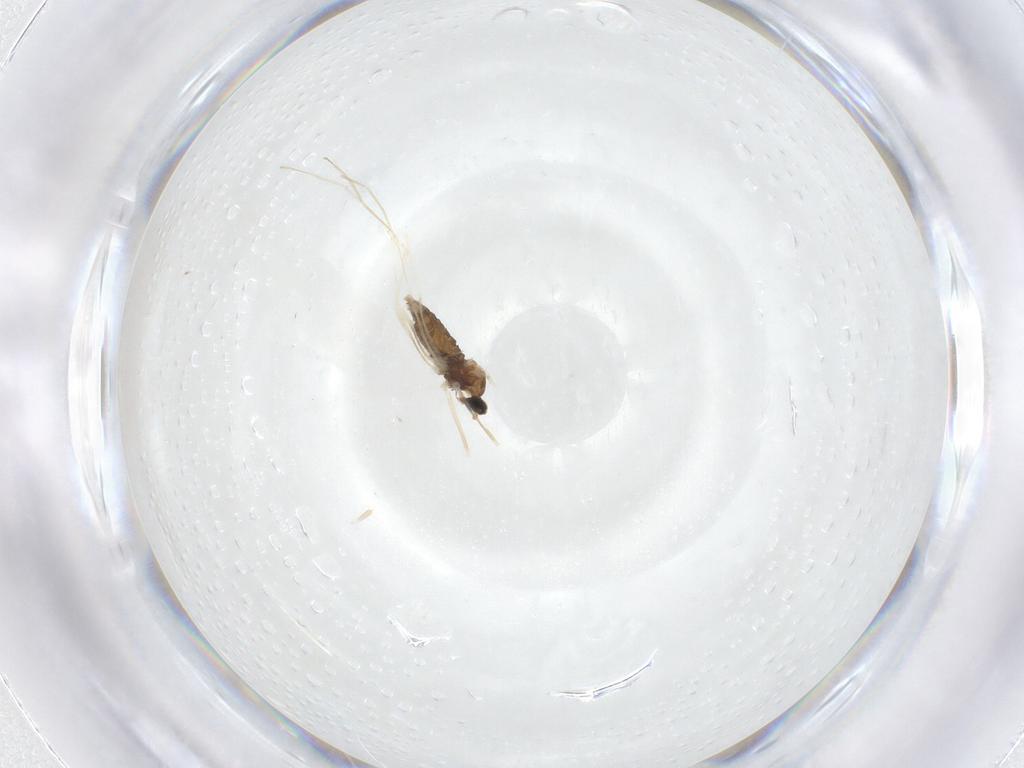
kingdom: Animalia
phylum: Arthropoda
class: Insecta
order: Diptera
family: Cecidomyiidae
